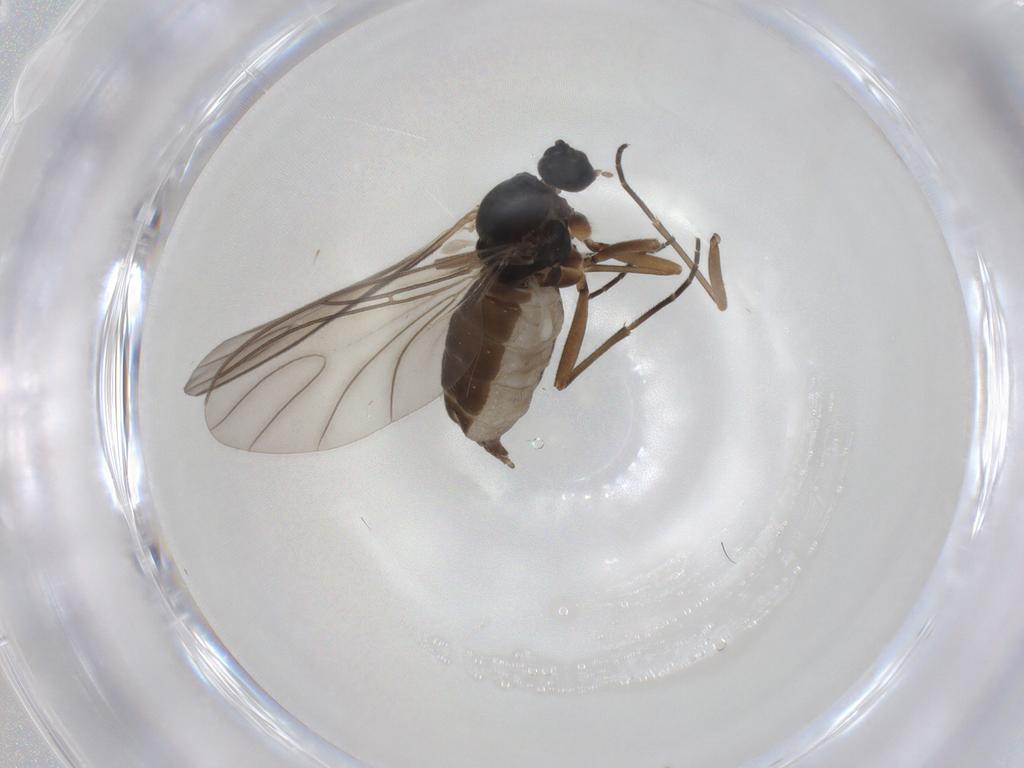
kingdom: Animalia
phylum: Arthropoda
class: Insecta
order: Diptera
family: Sciaridae
